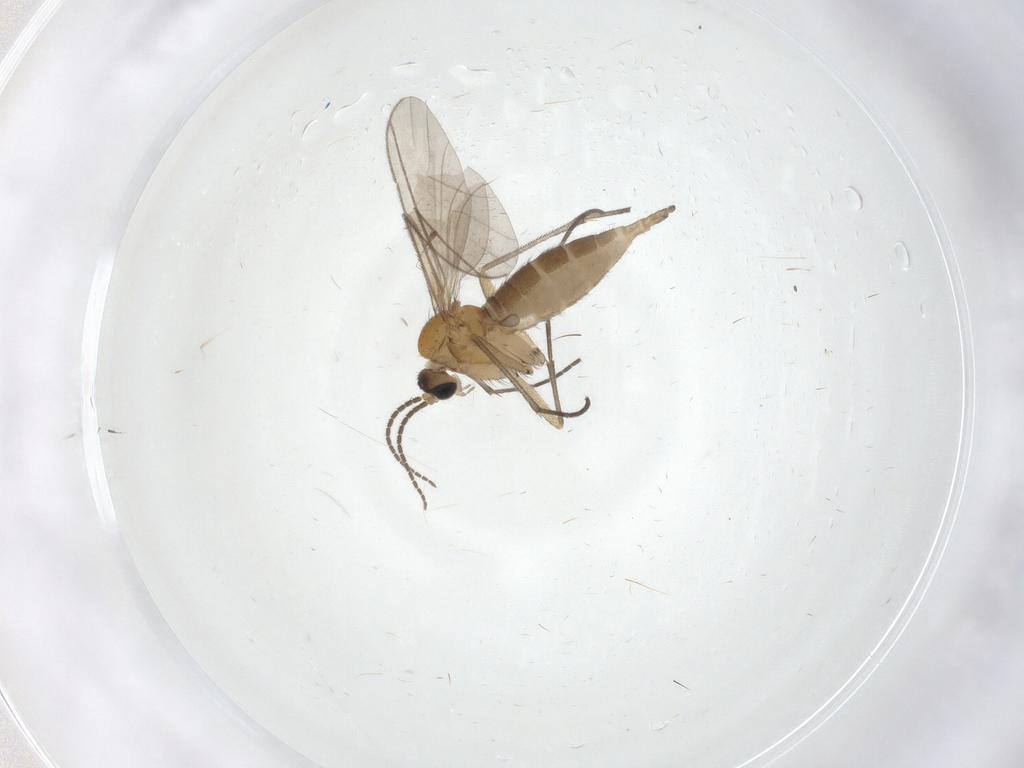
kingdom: Animalia
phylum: Arthropoda
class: Insecta
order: Diptera
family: Sciaridae
